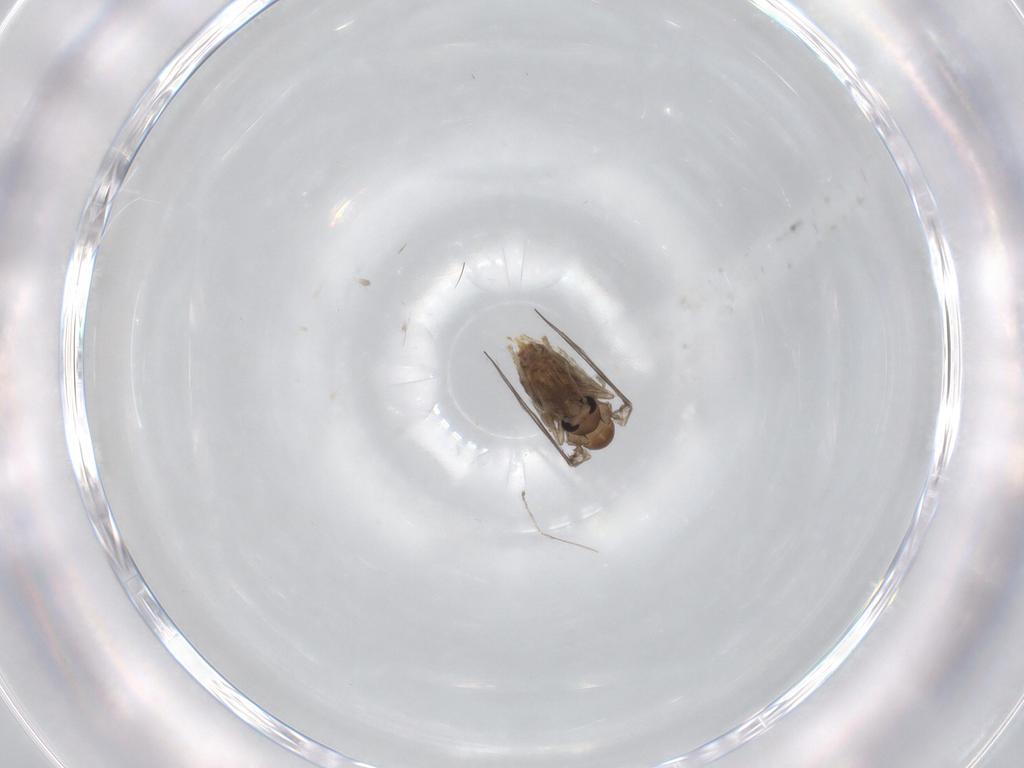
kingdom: Animalia
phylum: Arthropoda
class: Insecta
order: Diptera
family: Psychodidae
